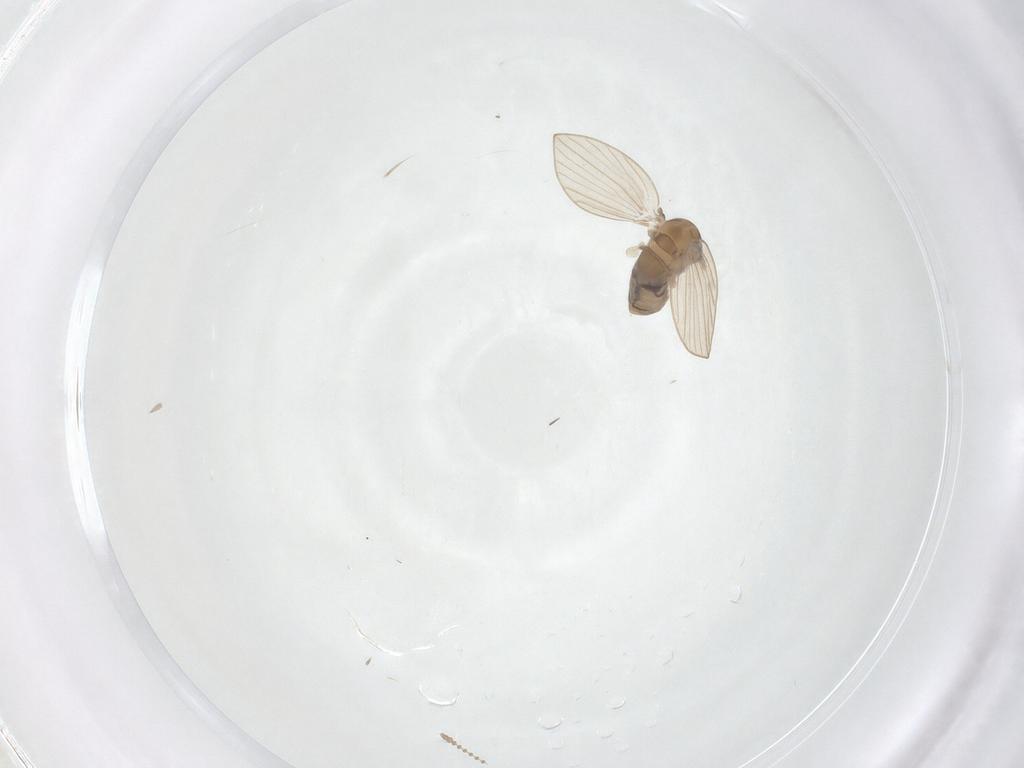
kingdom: Animalia
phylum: Arthropoda
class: Insecta
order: Diptera
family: Psychodidae
